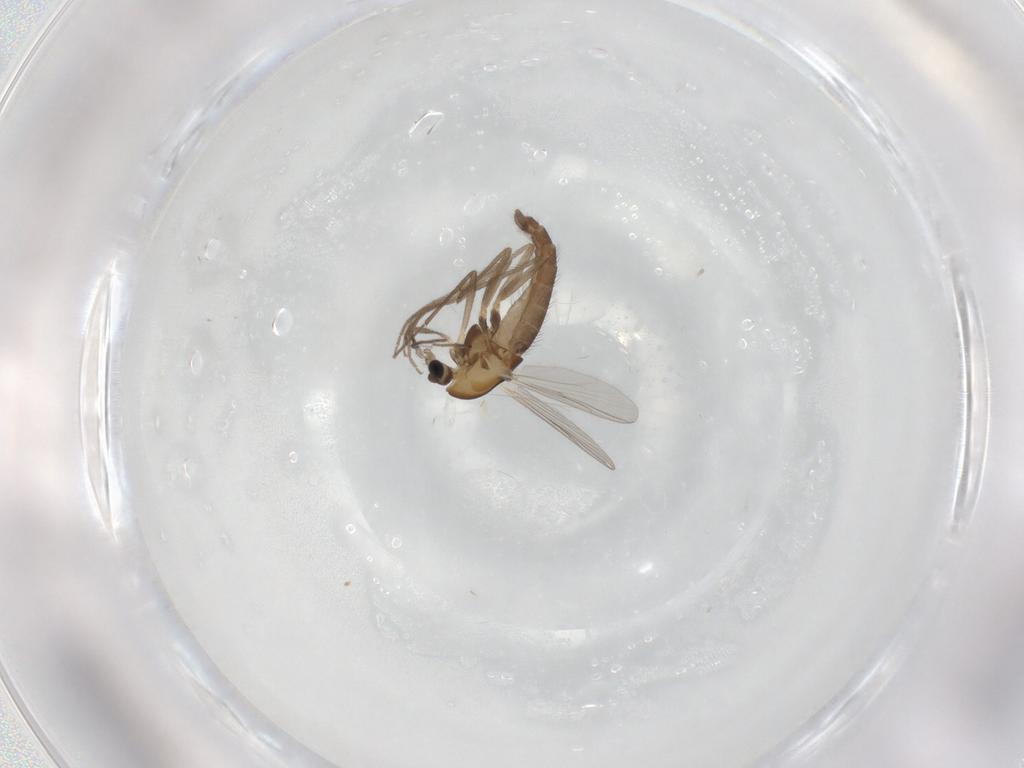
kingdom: Animalia
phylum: Arthropoda
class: Insecta
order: Diptera
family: Chironomidae
